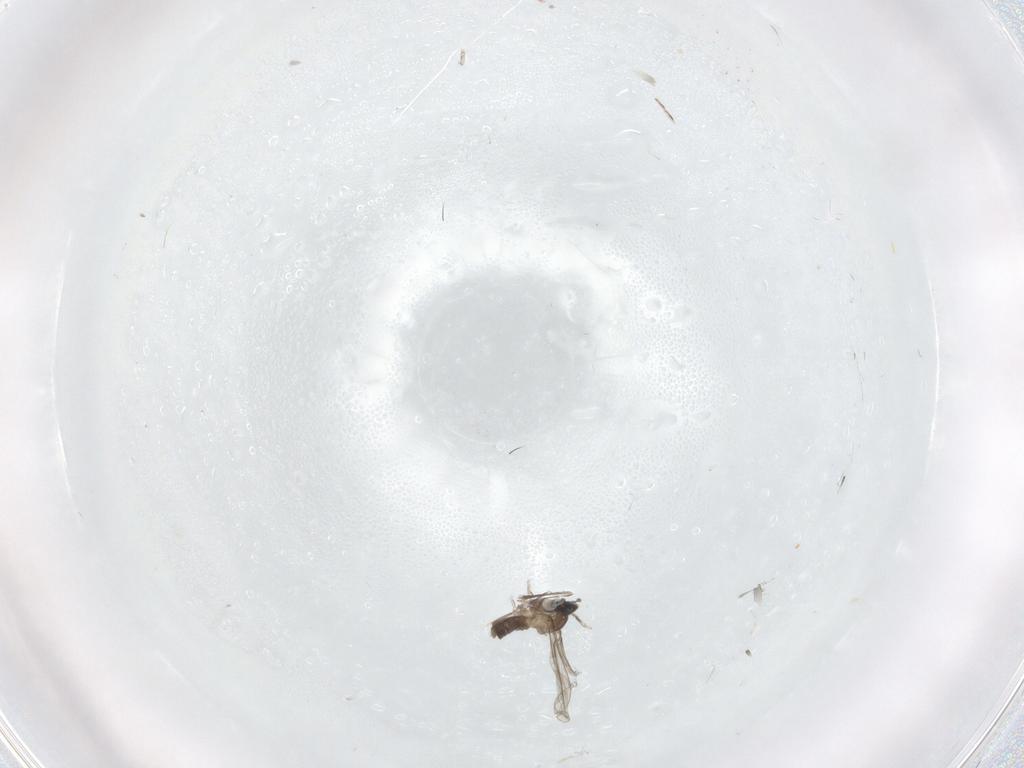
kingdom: Animalia
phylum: Arthropoda
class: Insecta
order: Diptera
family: Cecidomyiidae
